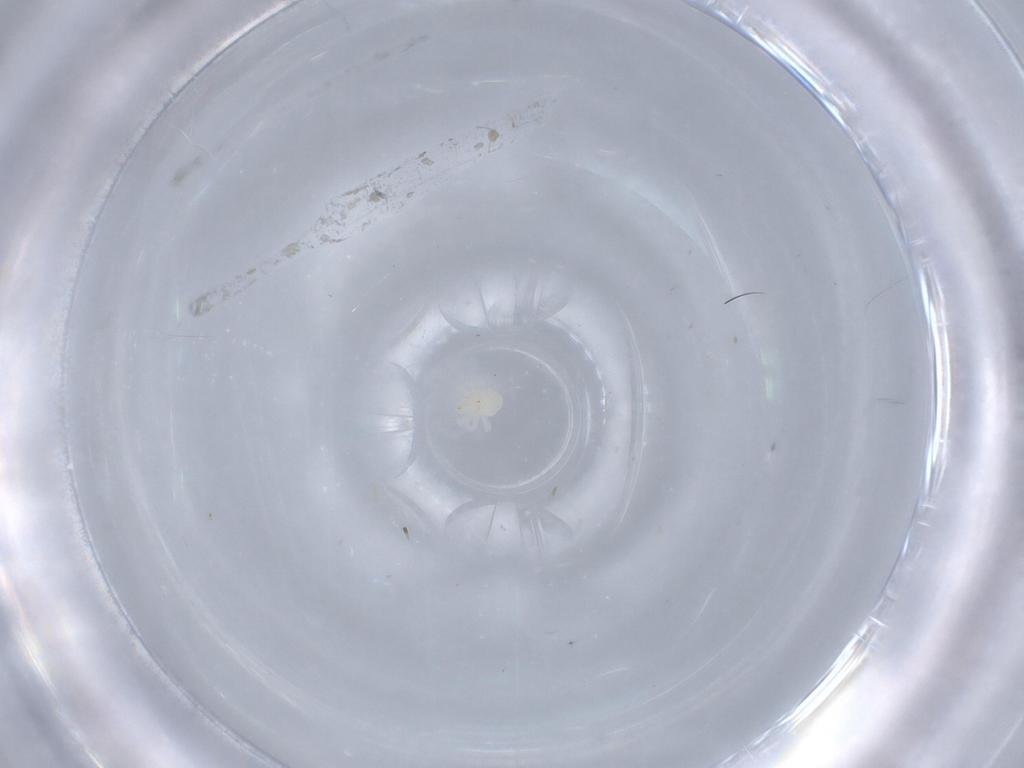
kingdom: Animalia
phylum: Arthropoda
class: Arachnida
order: Trombidiformes
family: Anystidae
